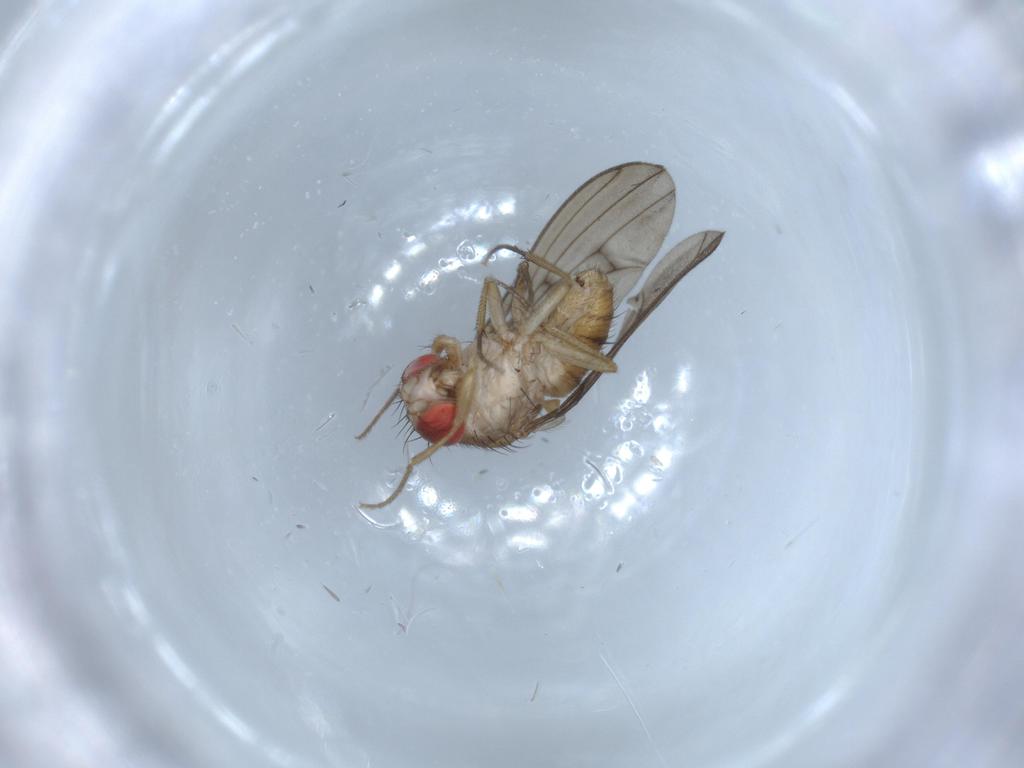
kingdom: Animalia
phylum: Arthropoda
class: Insecta
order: Diptera
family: Drosophilidae
